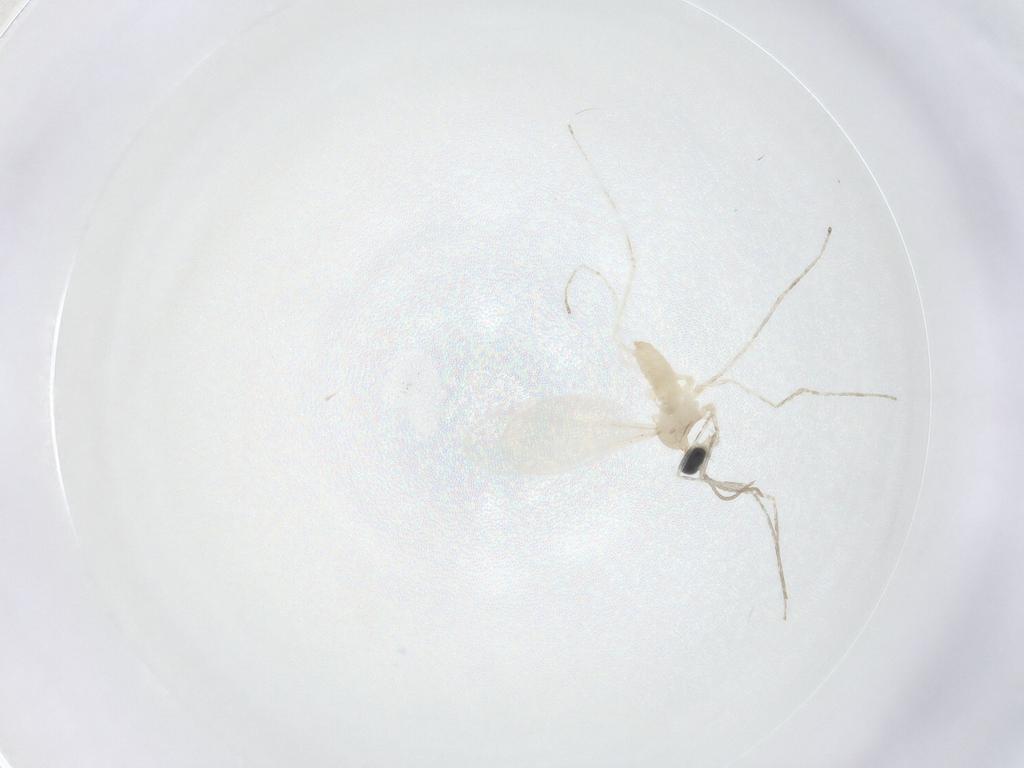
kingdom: Animalia
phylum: Arthropoda
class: Insecta
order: Diptera
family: Cecidomyiidae
